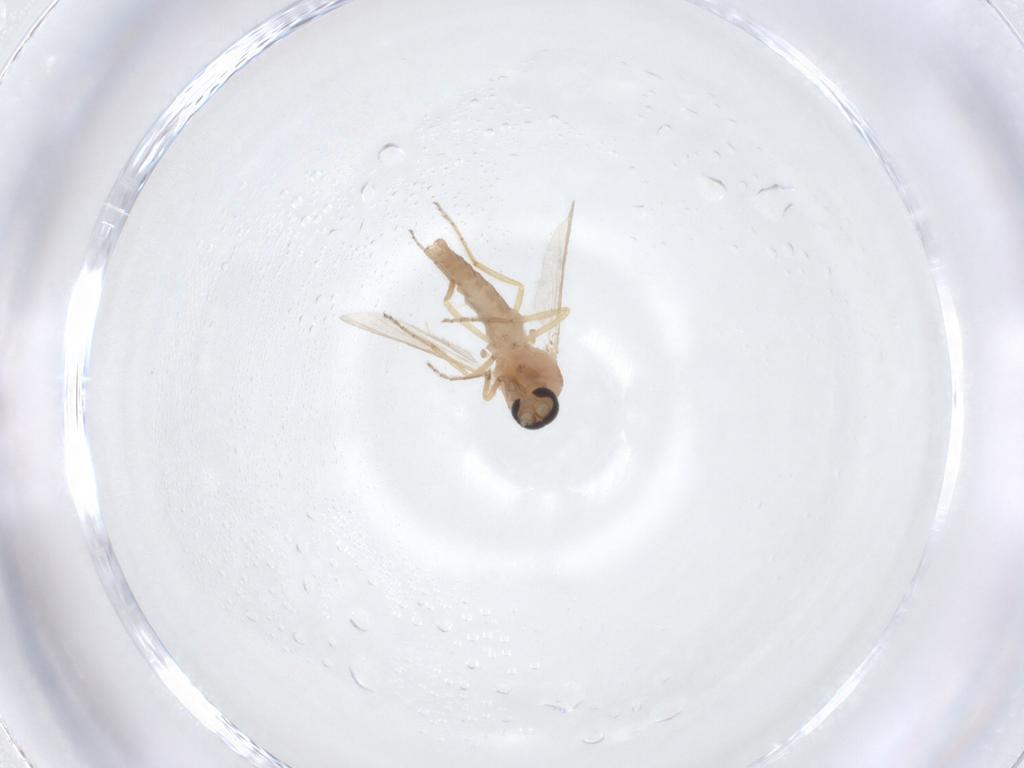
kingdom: Animalia
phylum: Arthropoda
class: Insecta
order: Diptera
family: Ceratopogonidae
